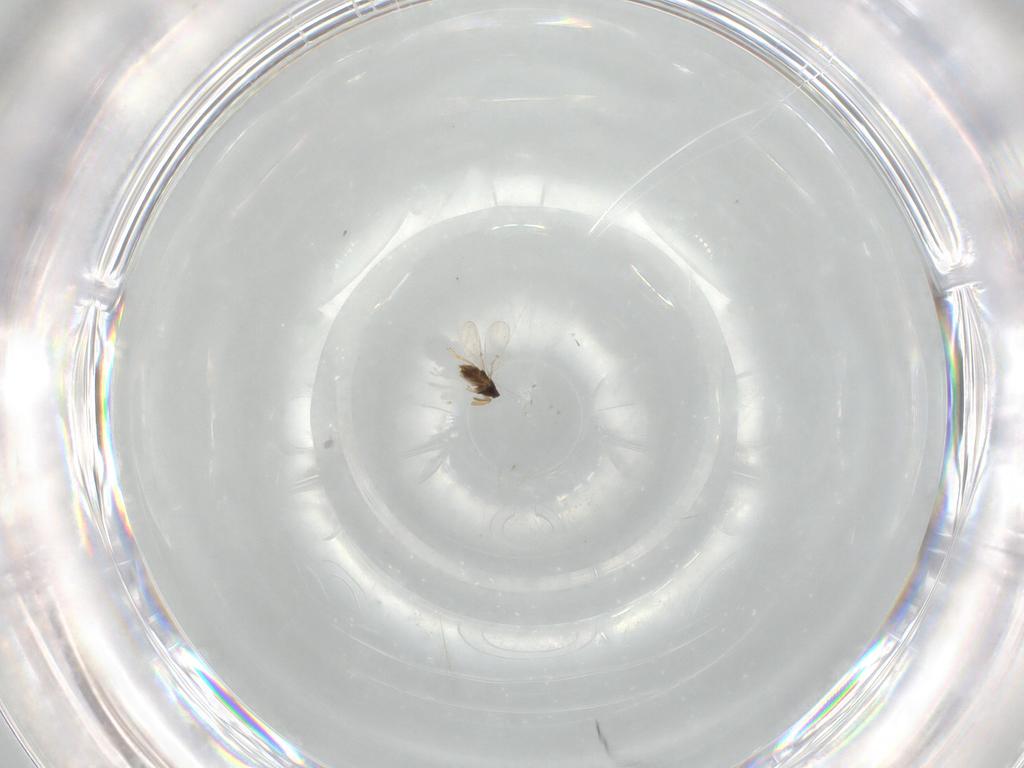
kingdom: Animalia
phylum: Arthropoda
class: Insecta
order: Hymenoptera
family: Encyrtidae
